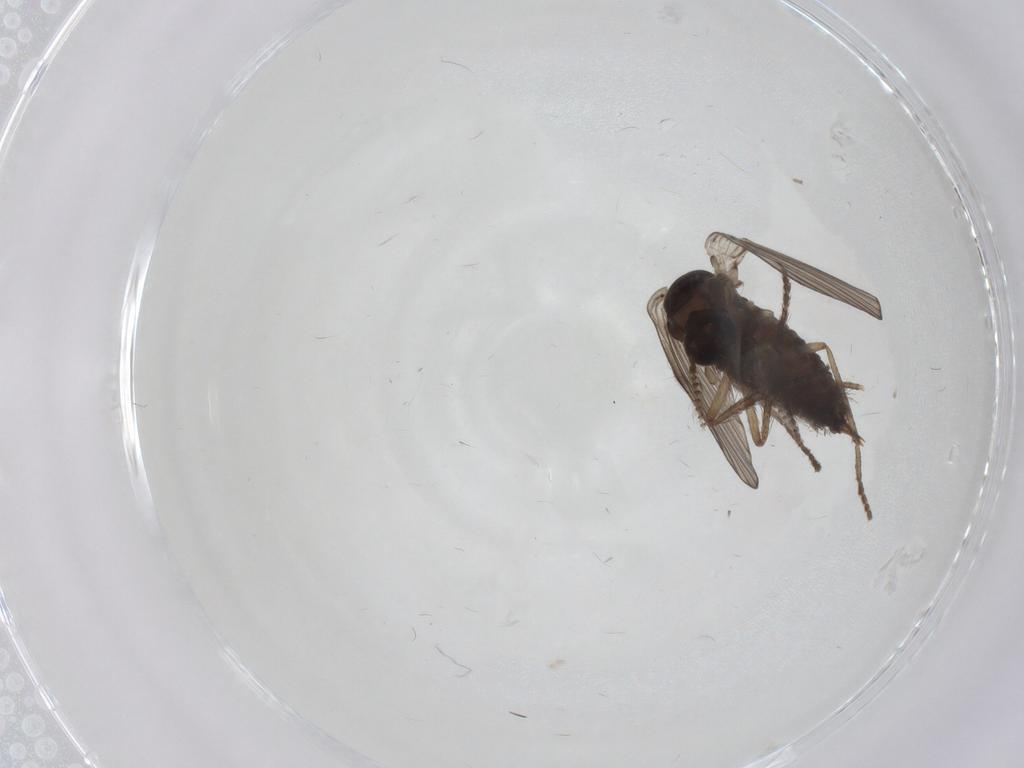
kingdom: Animalia
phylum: Arthropoda
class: Insecta
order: Diptera
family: Psychodidae
